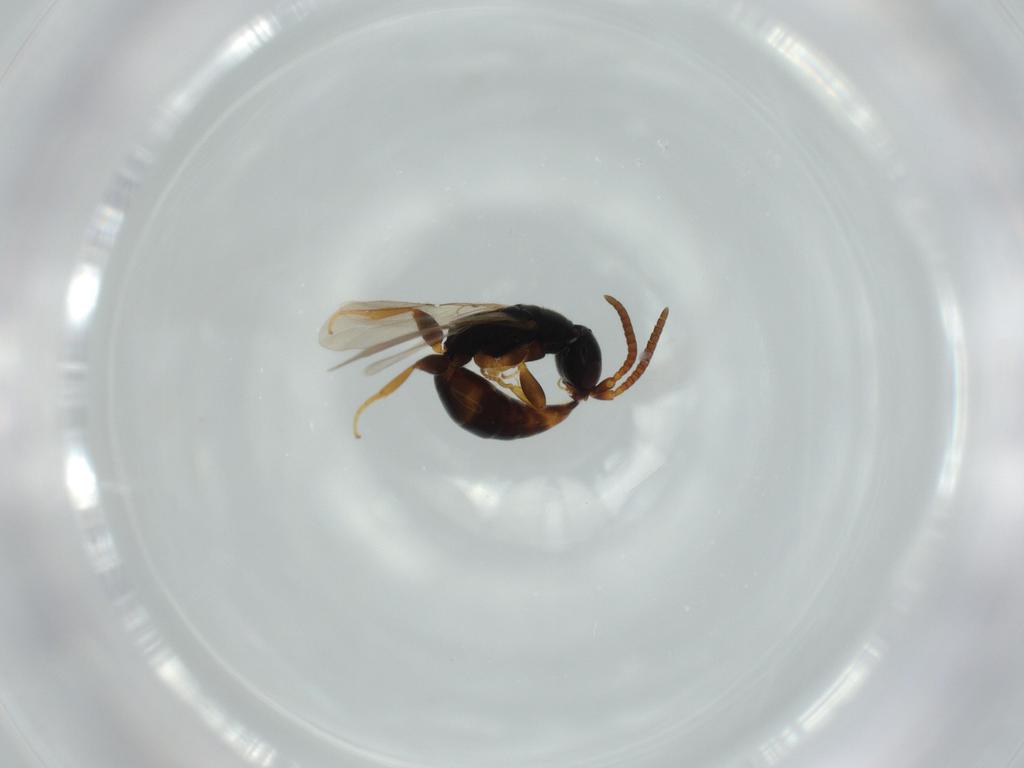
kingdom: Animalia
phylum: Arthropoda
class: Insecta
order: Hymenoptera
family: Bethylidae
